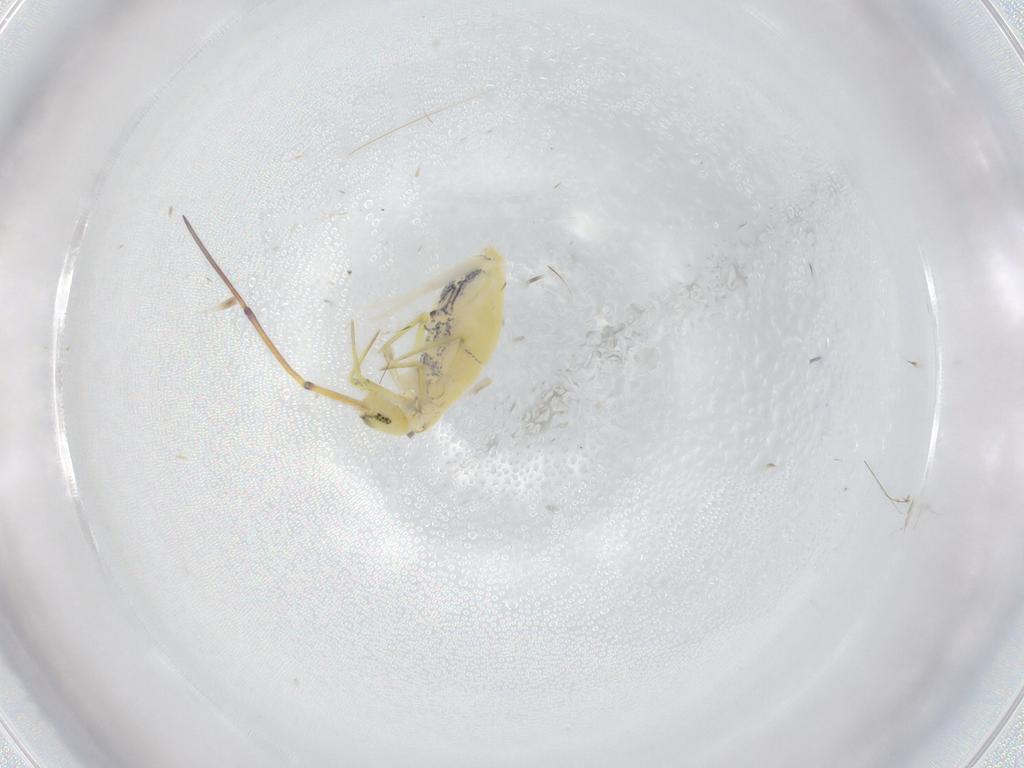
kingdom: Animalia
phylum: Arthropoda
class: Collembola
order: Entomobryomorpha
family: Entomobryidae
